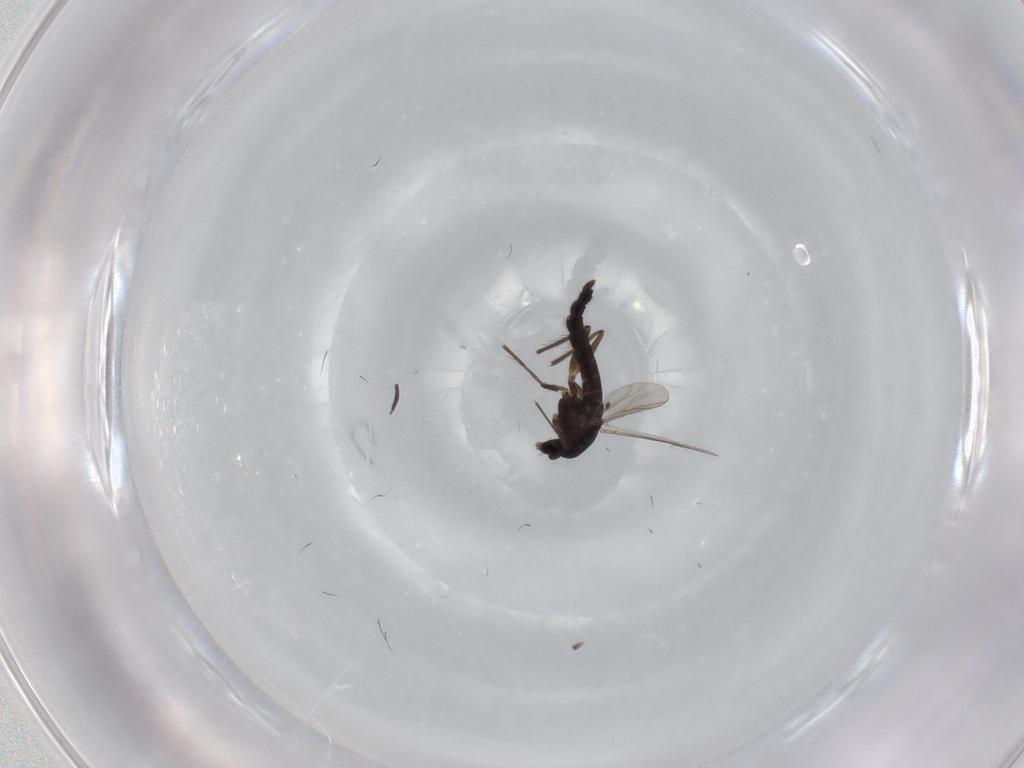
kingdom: Animalia
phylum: Arthropoda
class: Insecta
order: Diptera
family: Chironomidae
